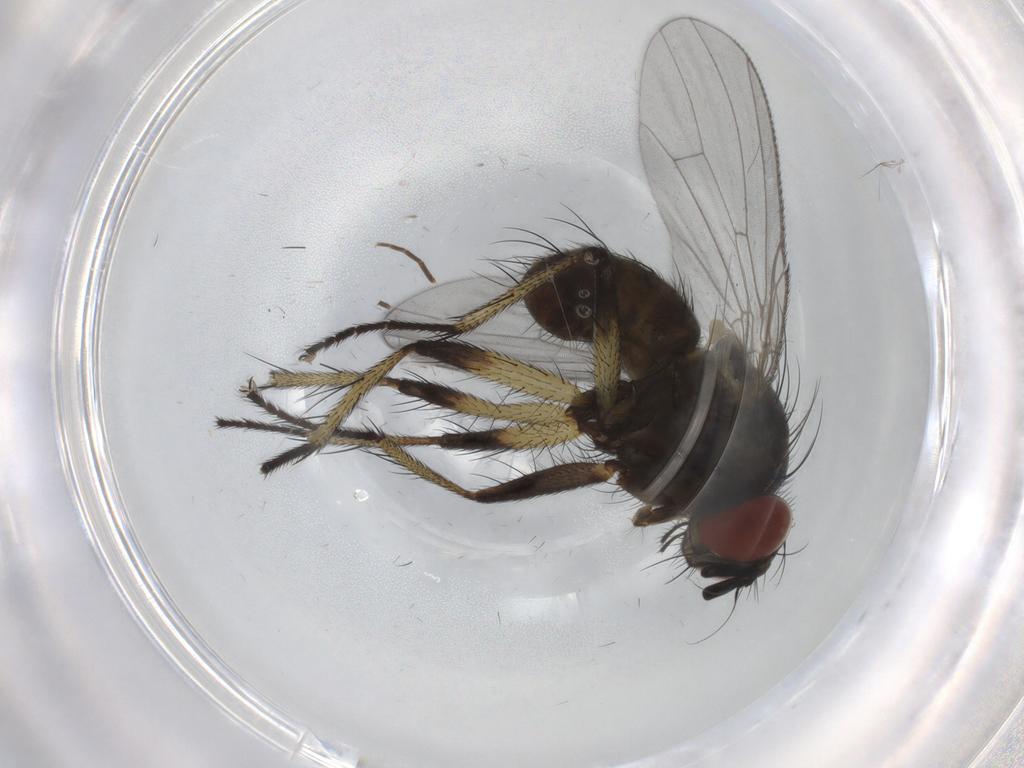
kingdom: Animalia
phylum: Arthropoda
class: Insecta
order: Diptera
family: Muscidae
